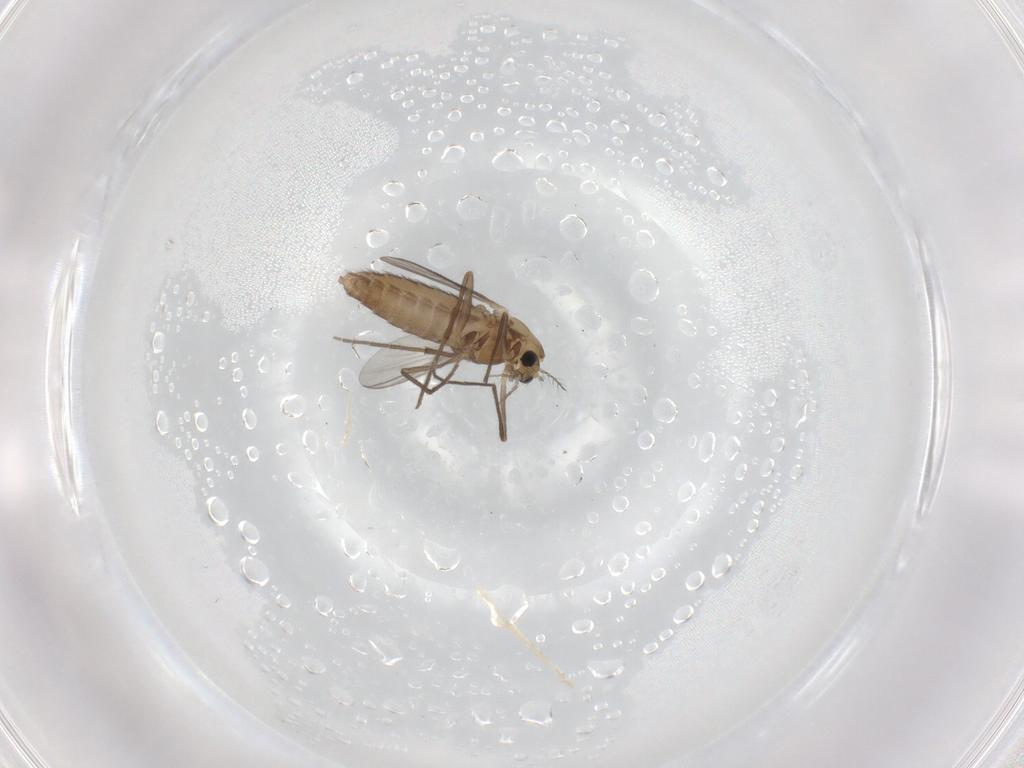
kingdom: Animalia
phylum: Arthropoda
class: Insecta
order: Diptera
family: Chironomidae
